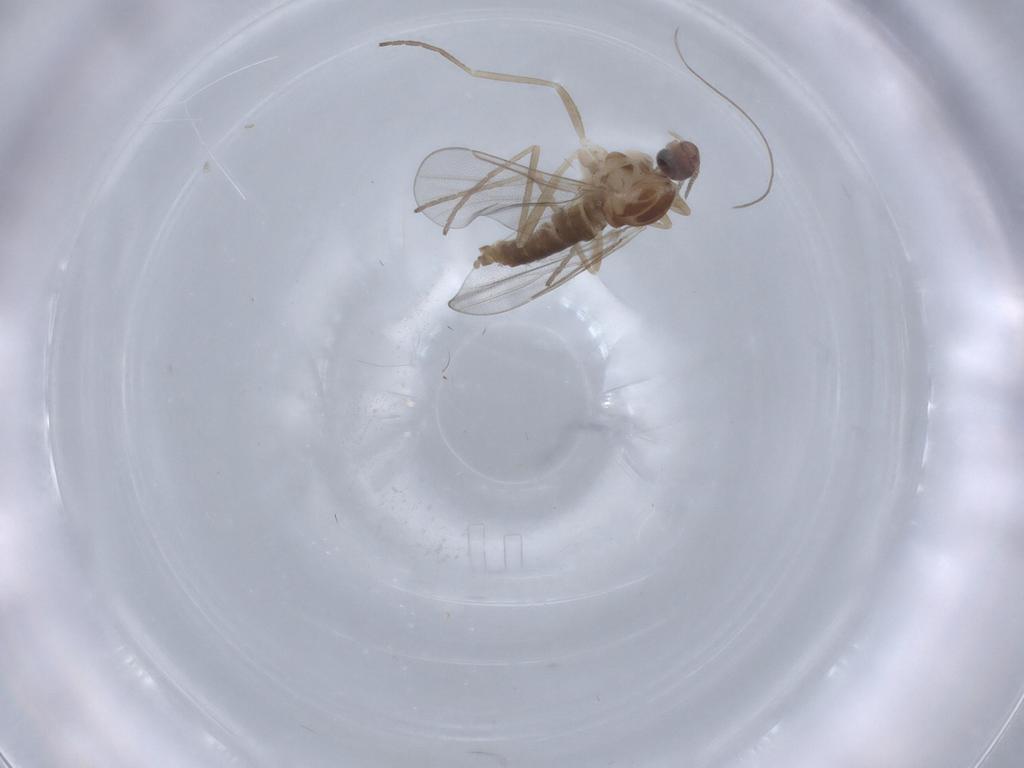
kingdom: Animalia
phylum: Arthropoda
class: Insecta
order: Diptera
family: Cecidomyiidae
